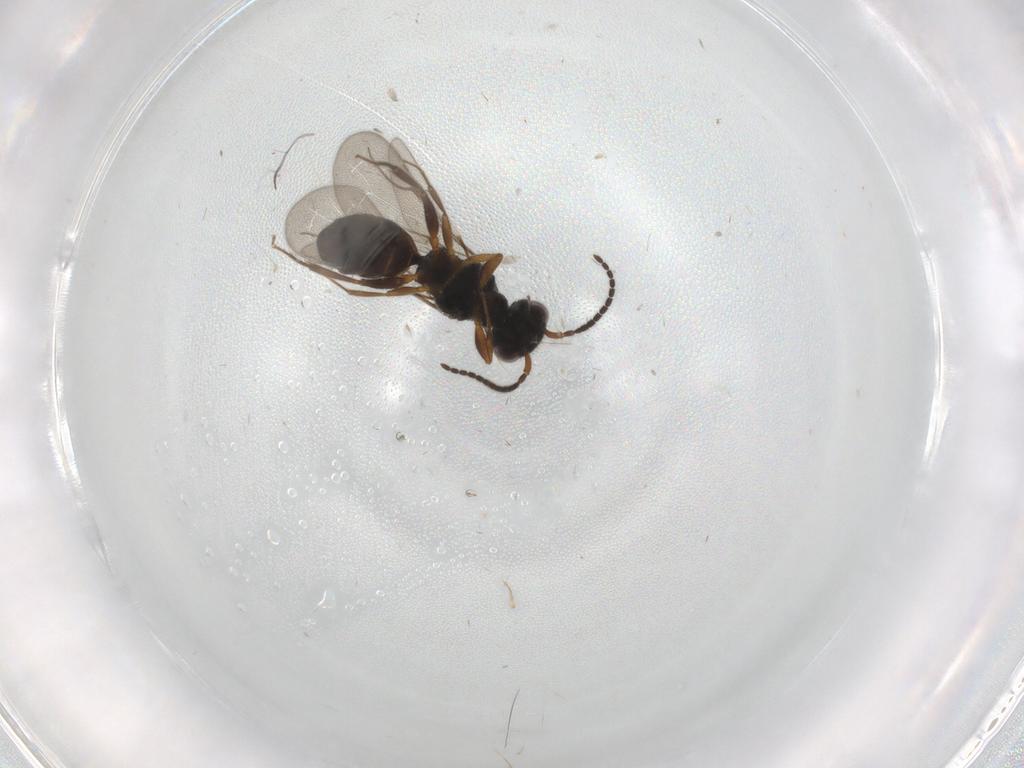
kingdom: Animalia
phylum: Arthropoda
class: Insecta
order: Hymenoptera
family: Bethylidae
